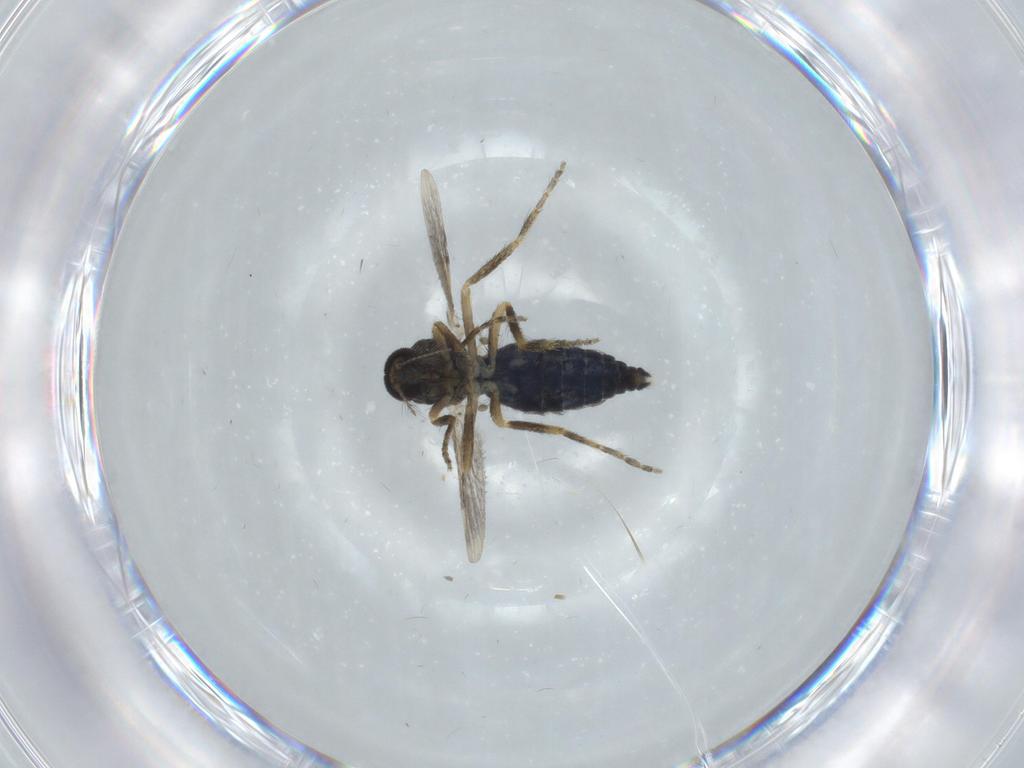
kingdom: Animalia
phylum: Arthropoda
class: Insecta
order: Diptera
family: Ceratopogonidae
